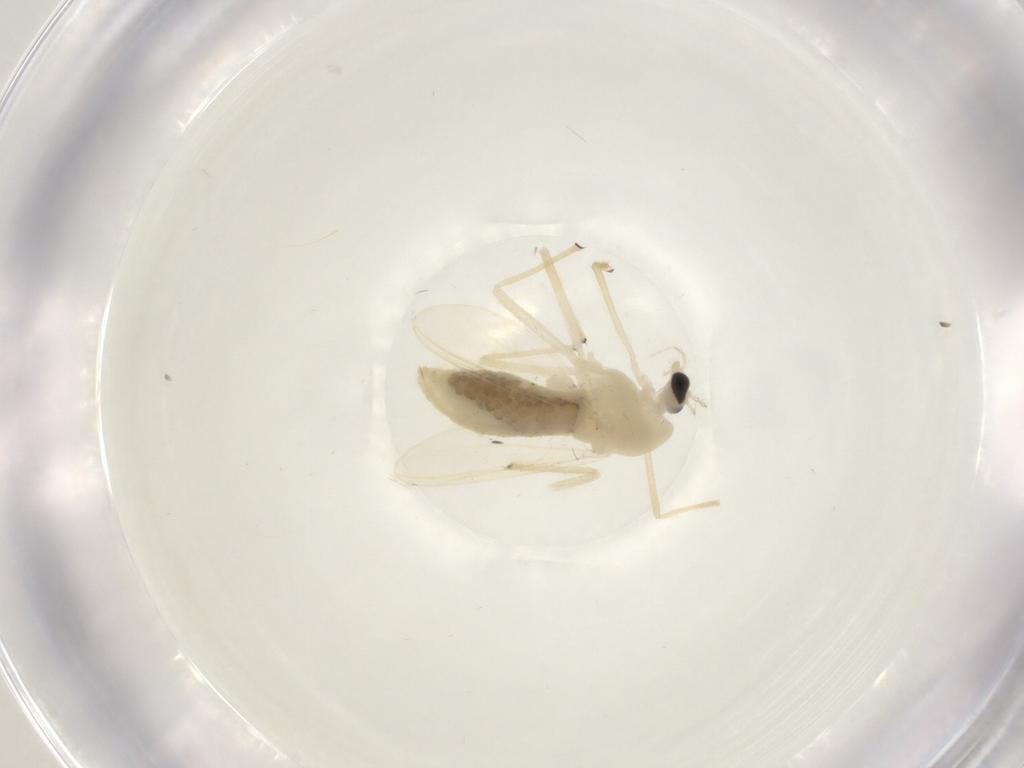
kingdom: Animalia
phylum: Arthropoda
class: Insecta
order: Diptera
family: Chironomidae
